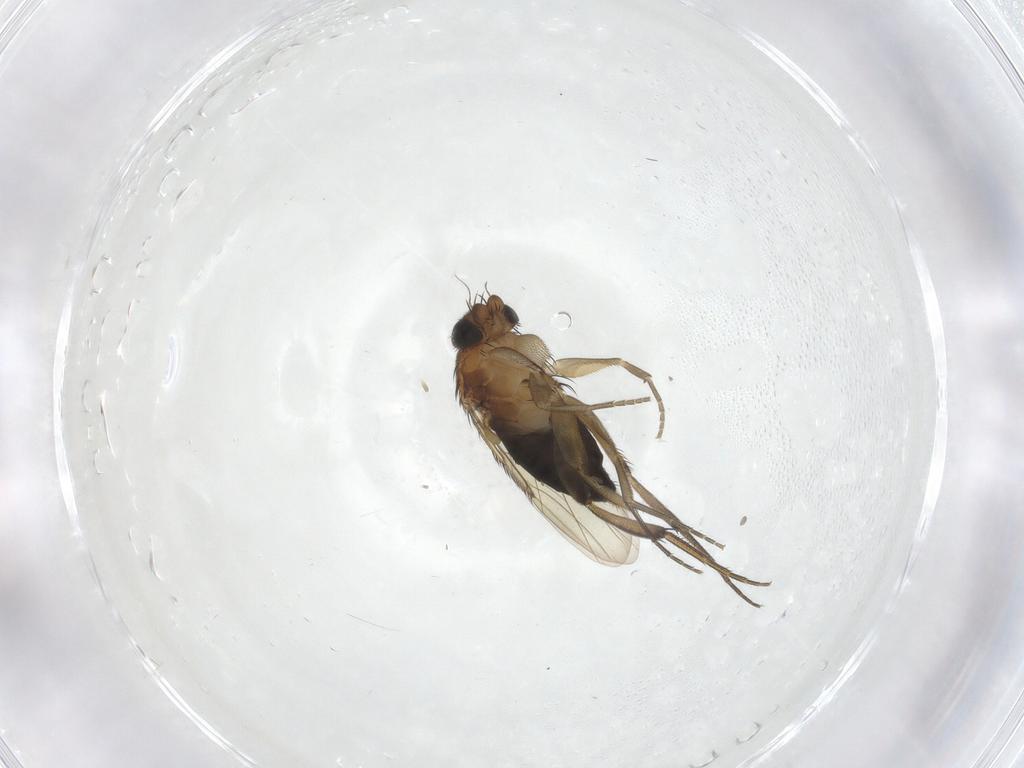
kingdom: Animalia
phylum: Arthropoda
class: Insecta
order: Diptera
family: Phoridae
